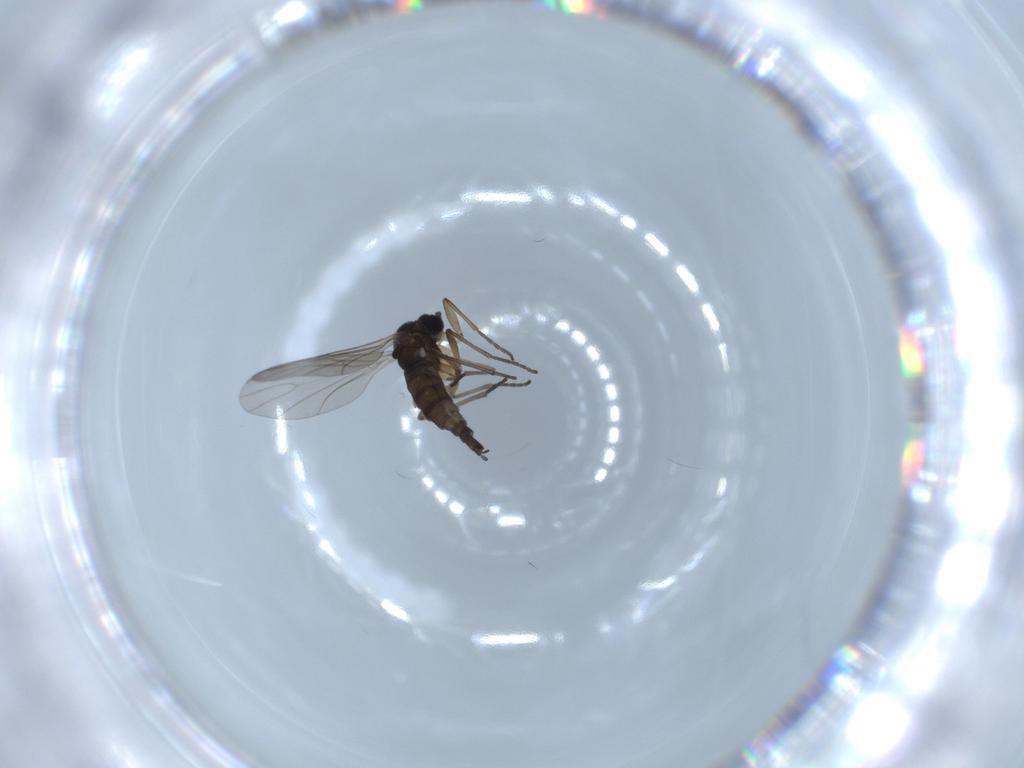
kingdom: Animalia
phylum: Arthropoda
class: Insecta
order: Diptera
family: Sciaridae
